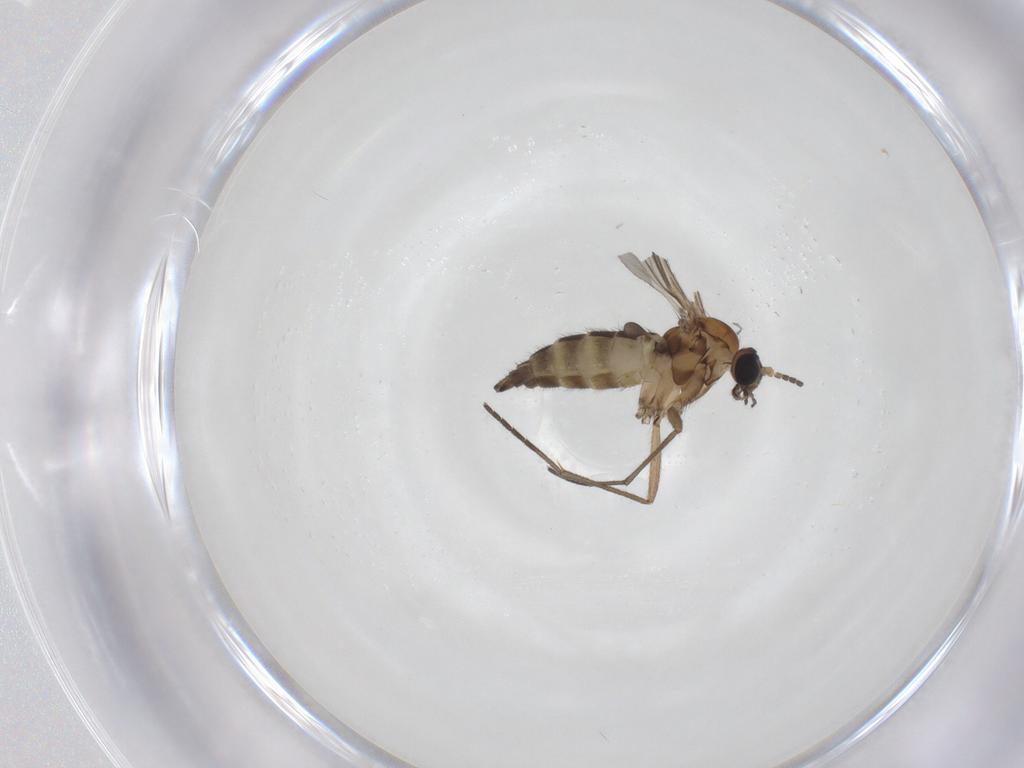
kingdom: Animalia
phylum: Arthropoda
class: Insecta
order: Diptera
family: Sciaridae
